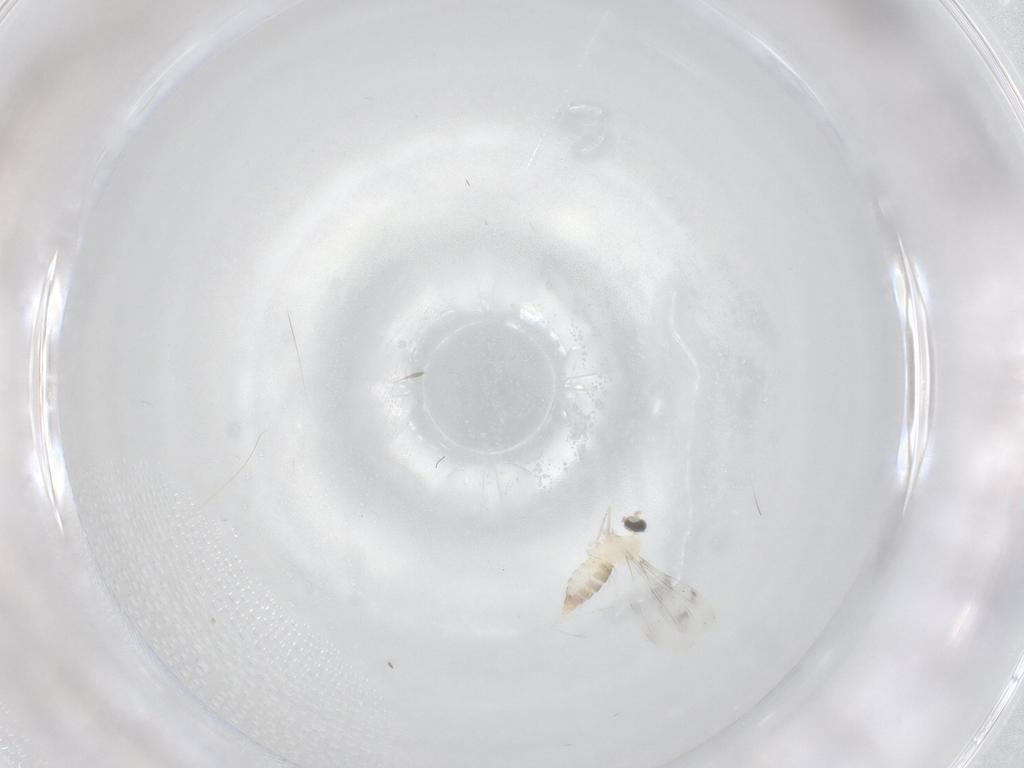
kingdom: Animalia
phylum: Arthropoda
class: Insecta
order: Diptera
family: Cecidomyiidae
